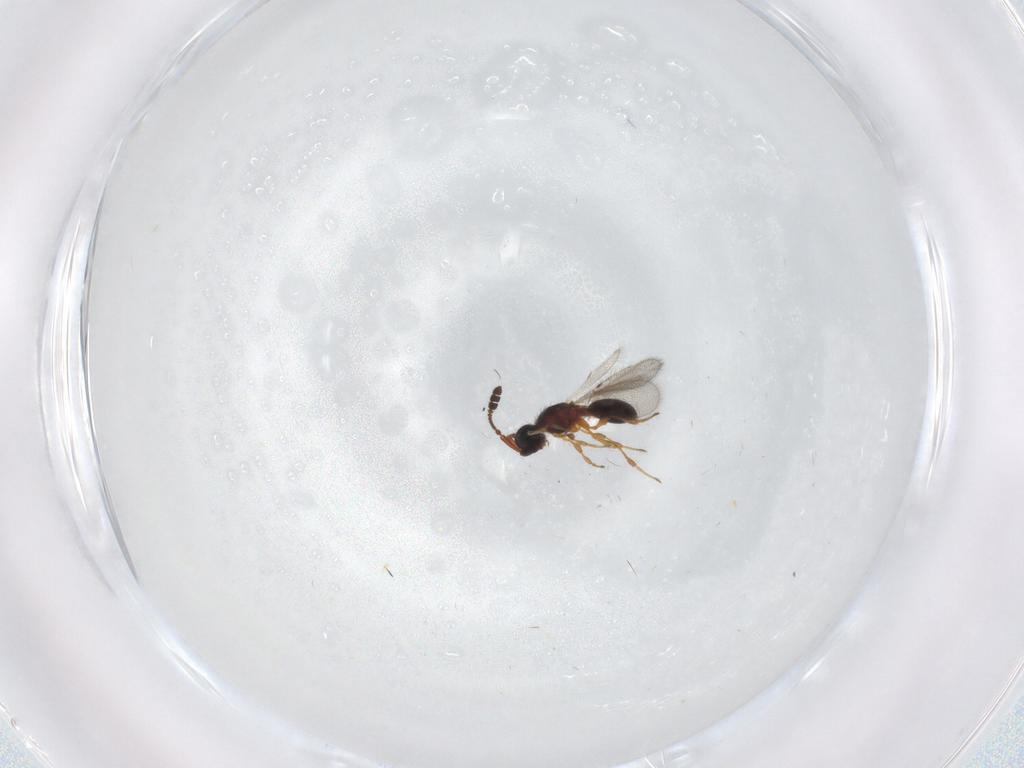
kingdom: Animalia
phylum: Arthropoda
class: Insecta
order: Hymenoptera
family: Diapriidae
